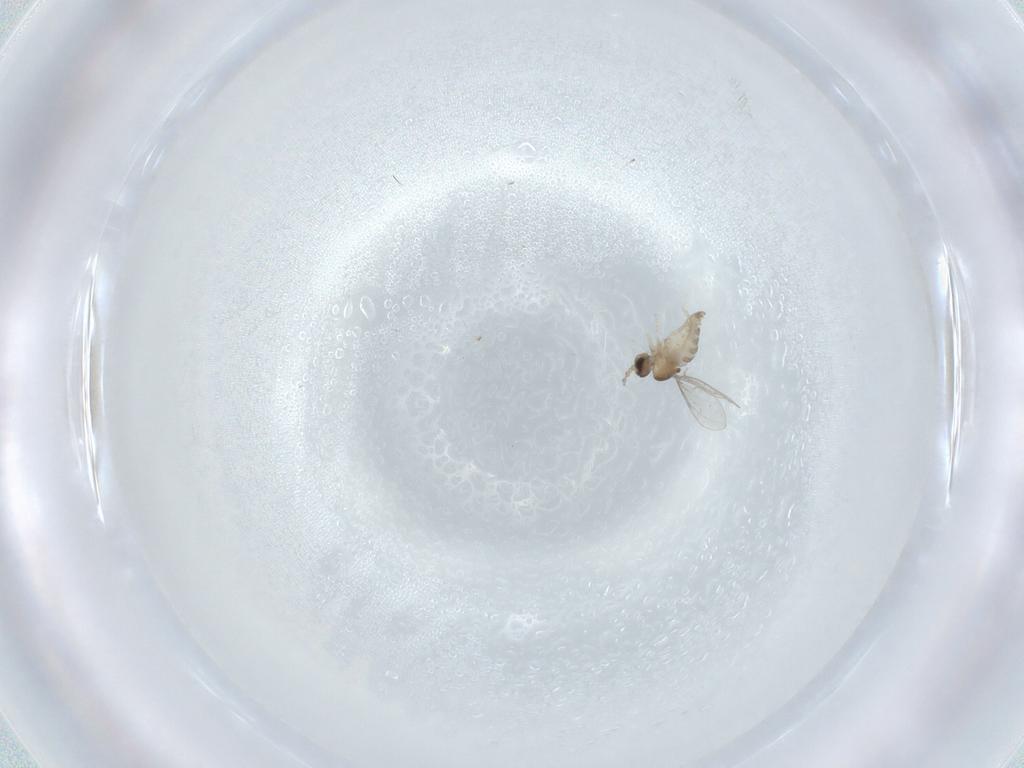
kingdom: Animalia
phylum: Arthropoda
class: Insecta
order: Diptera
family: Cecidomyiidae
